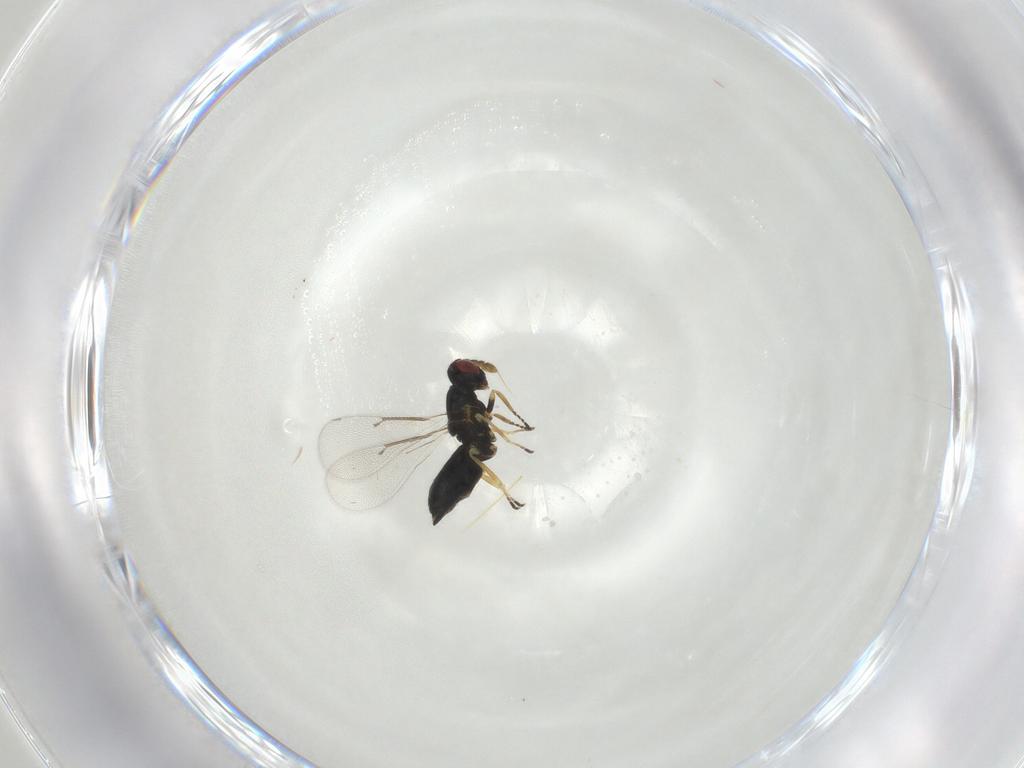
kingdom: Animalia
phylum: Arthropoda
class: Insecta
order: Hymenoptera
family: Eulophidae
